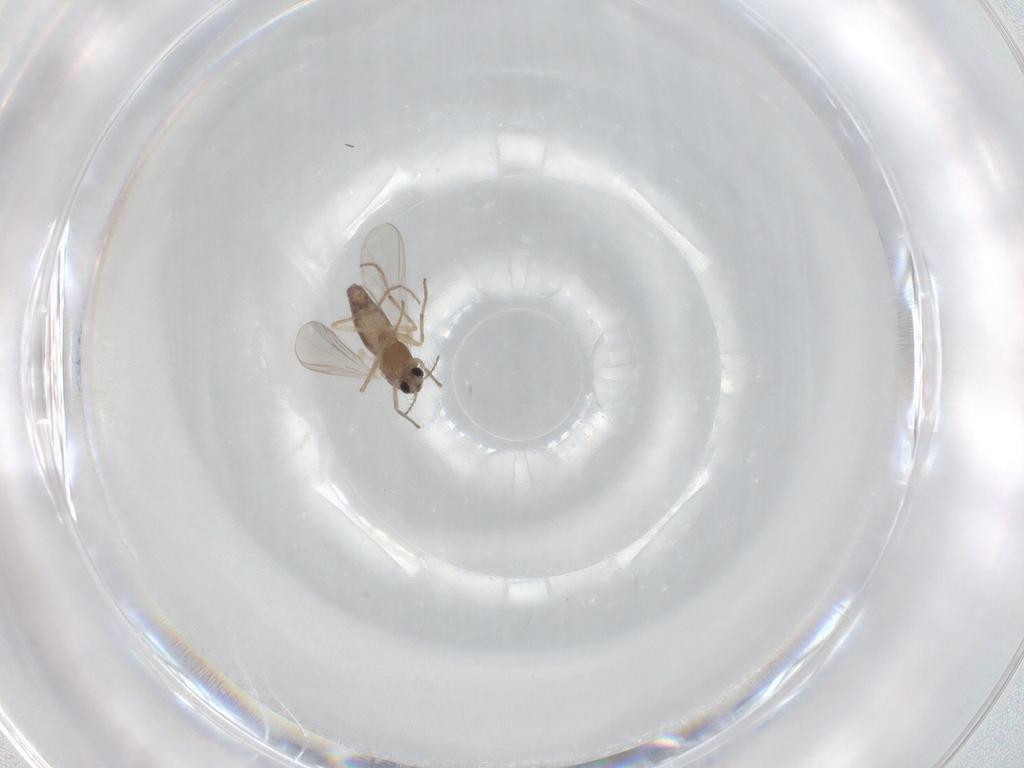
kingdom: Animalia
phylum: Arthropoda
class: Insecta
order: Diptera
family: Chironomidae
